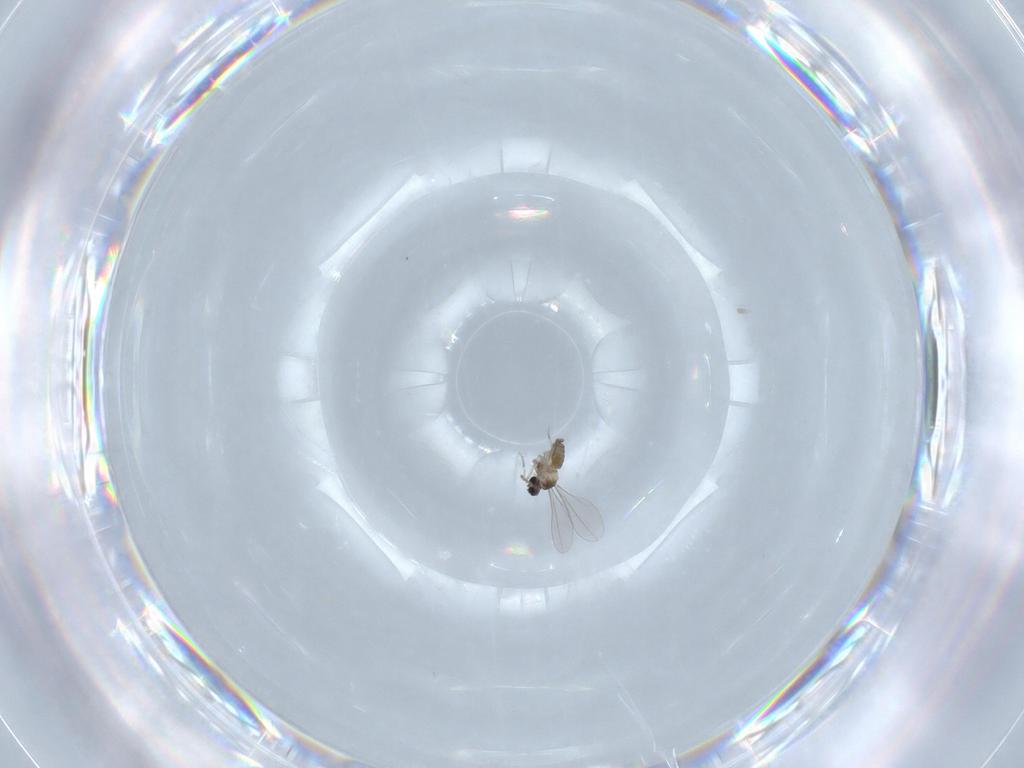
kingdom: Animalia
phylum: Arthropoda
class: Insecta
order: Diptera
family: Cecidomyiidae
